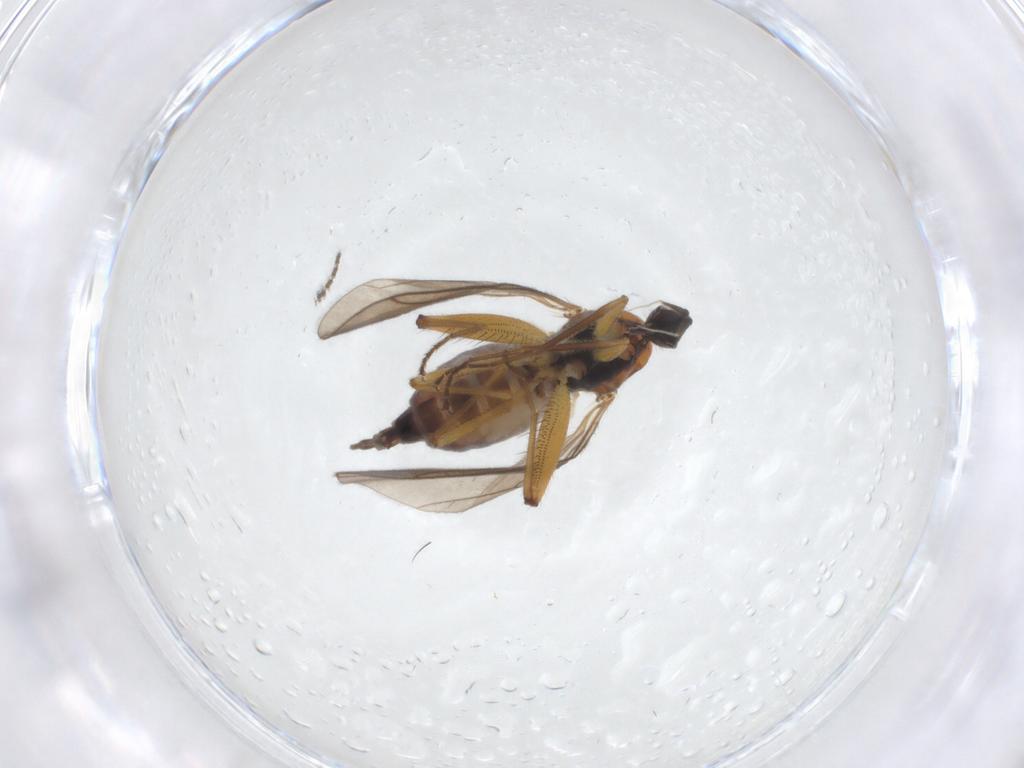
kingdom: Animalia
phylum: Arthropoda
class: Insecta
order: Diptera
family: Hybotidae
